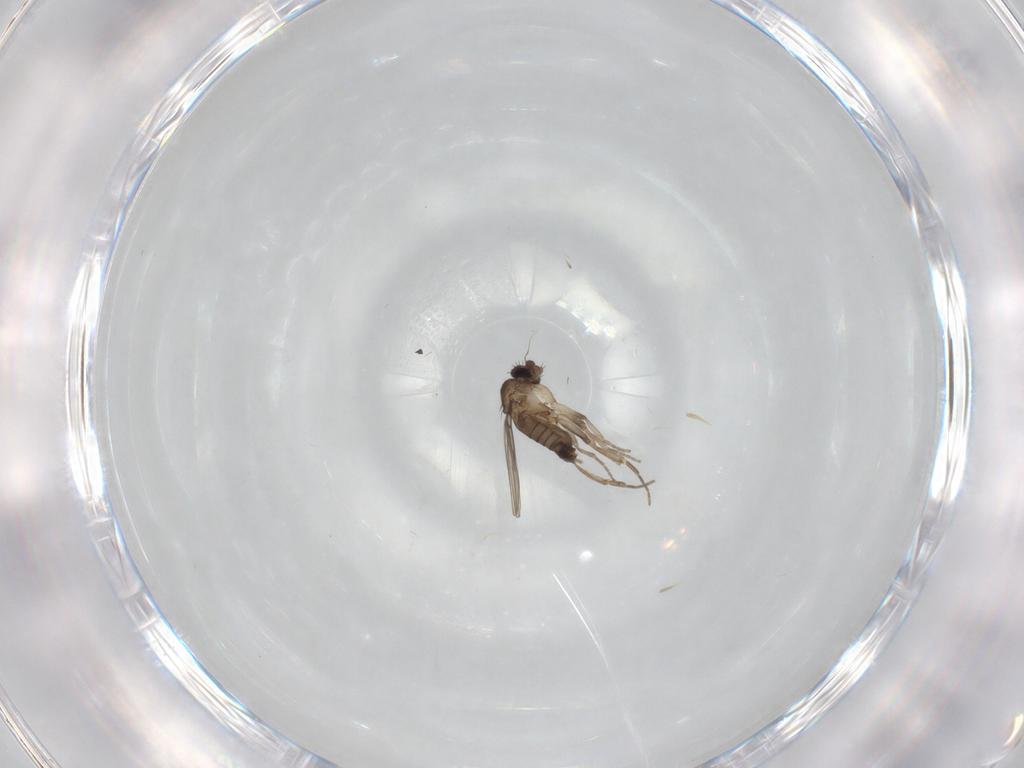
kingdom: Animalia
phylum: Arthropoda
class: Insecta
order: Diptera
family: Phoridae
